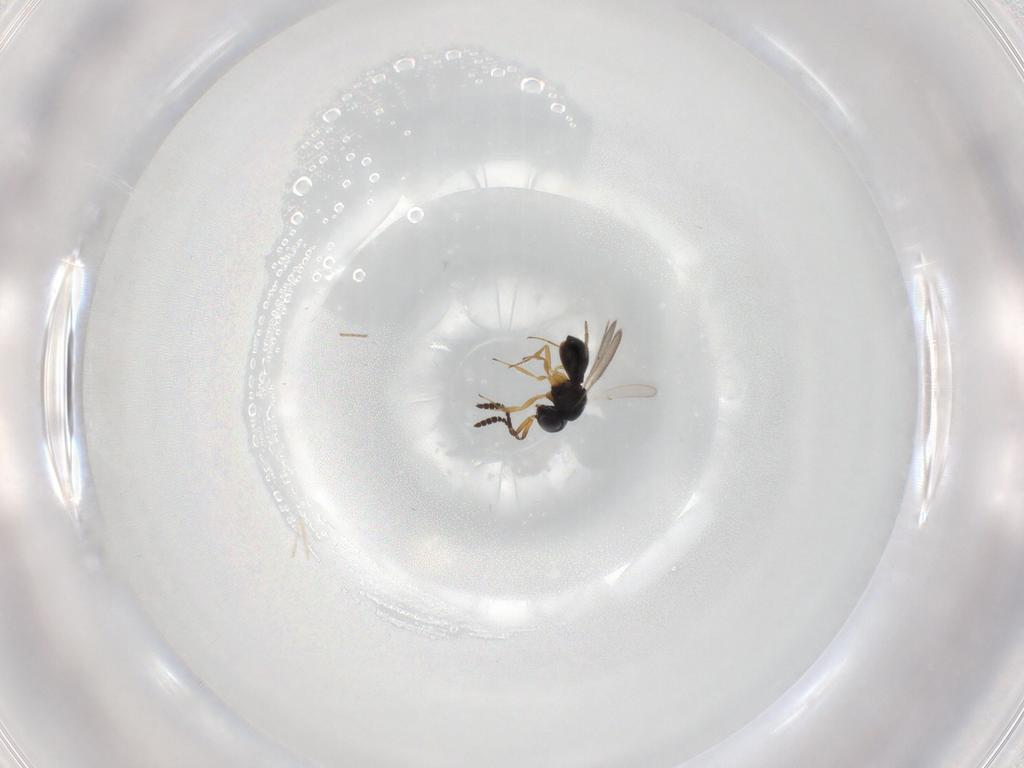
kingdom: Animalia
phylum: Arthropoda
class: Insecta
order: Hymenoptera
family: Scelionidae
